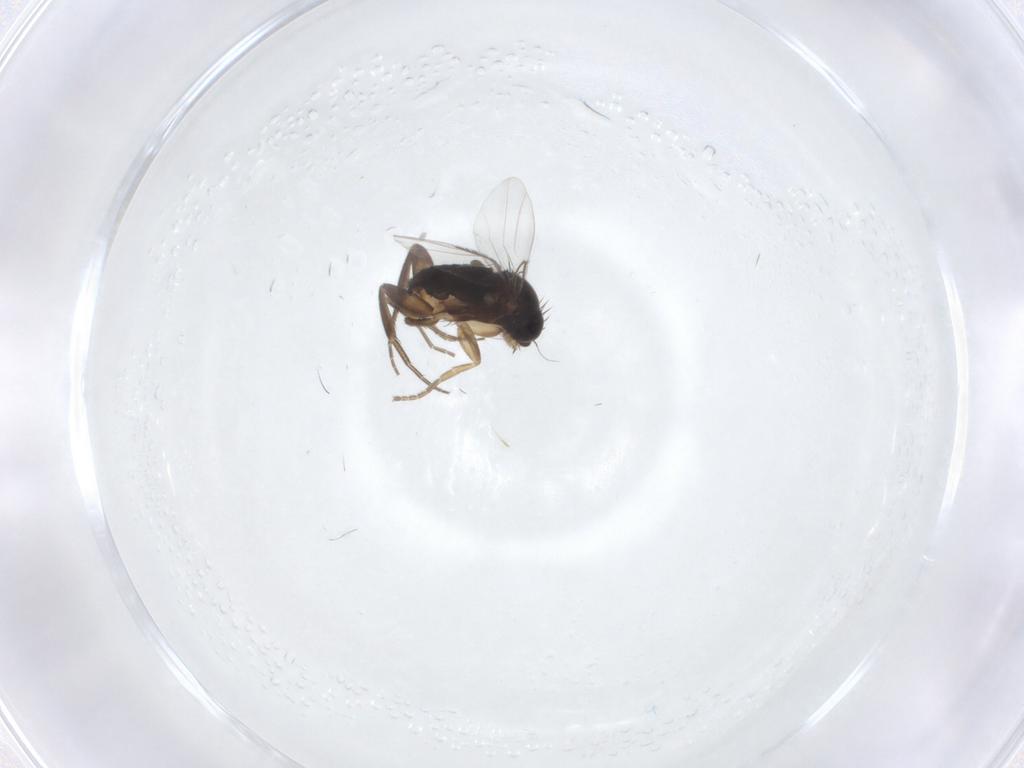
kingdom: Animalia
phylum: Arthropoda
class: Insecta
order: Diptera
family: Phoridae
